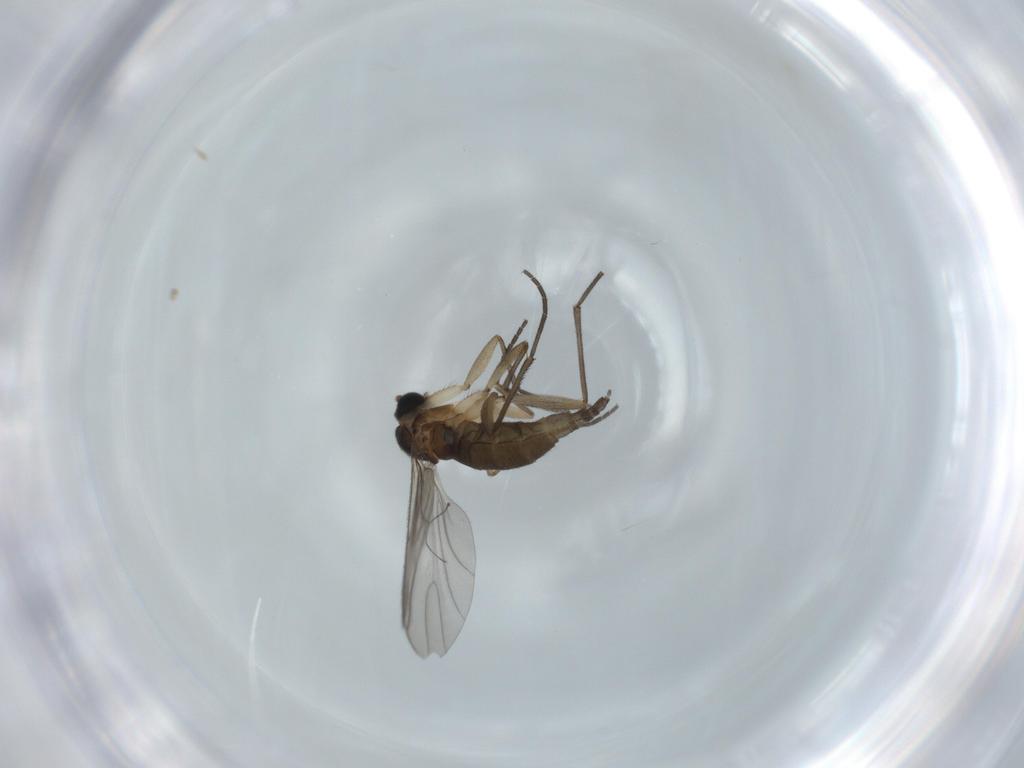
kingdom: Animalia
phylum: Arthropoda
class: Insecta
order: Diptera
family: Sciaridae
